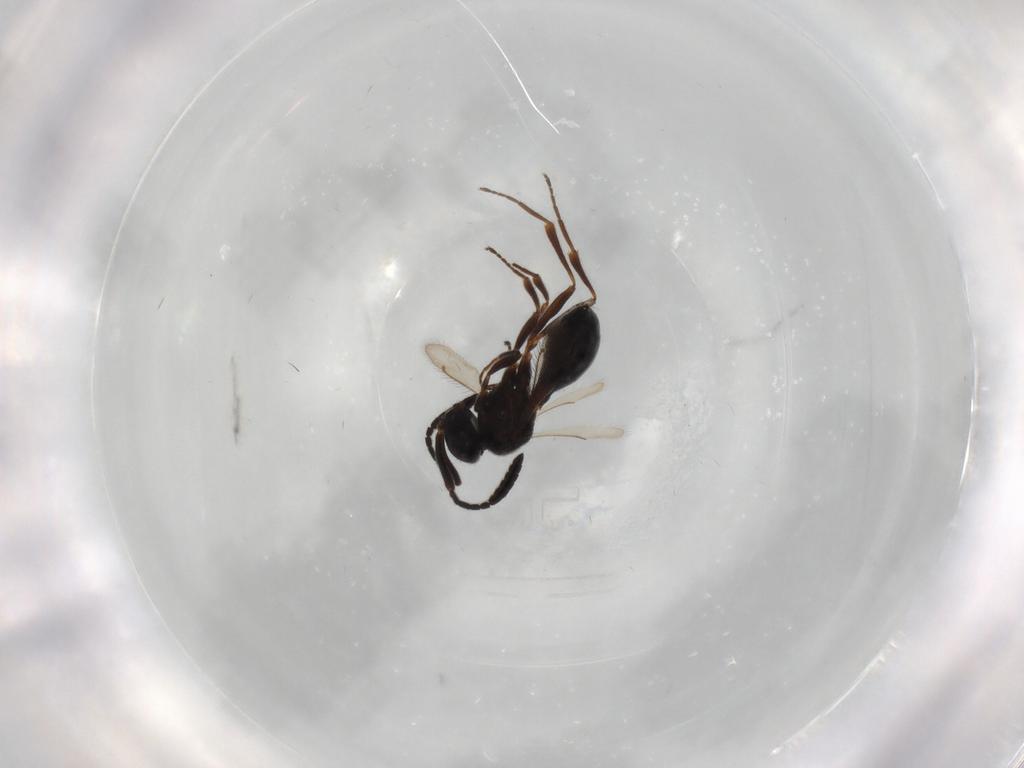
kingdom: Animalia
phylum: Arthropoda
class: Insecta
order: Hymenoptera
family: Scelionidae
